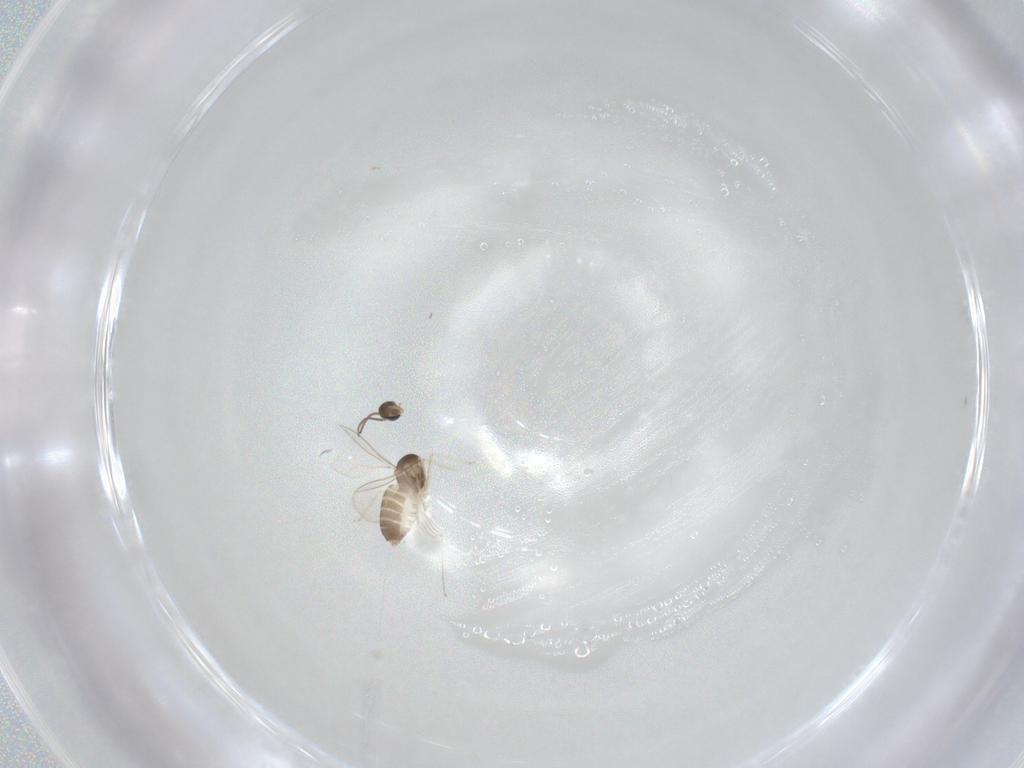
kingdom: Animalia
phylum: Arthropoda
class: Insecta
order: Diptera
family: Cecidomyiidae
